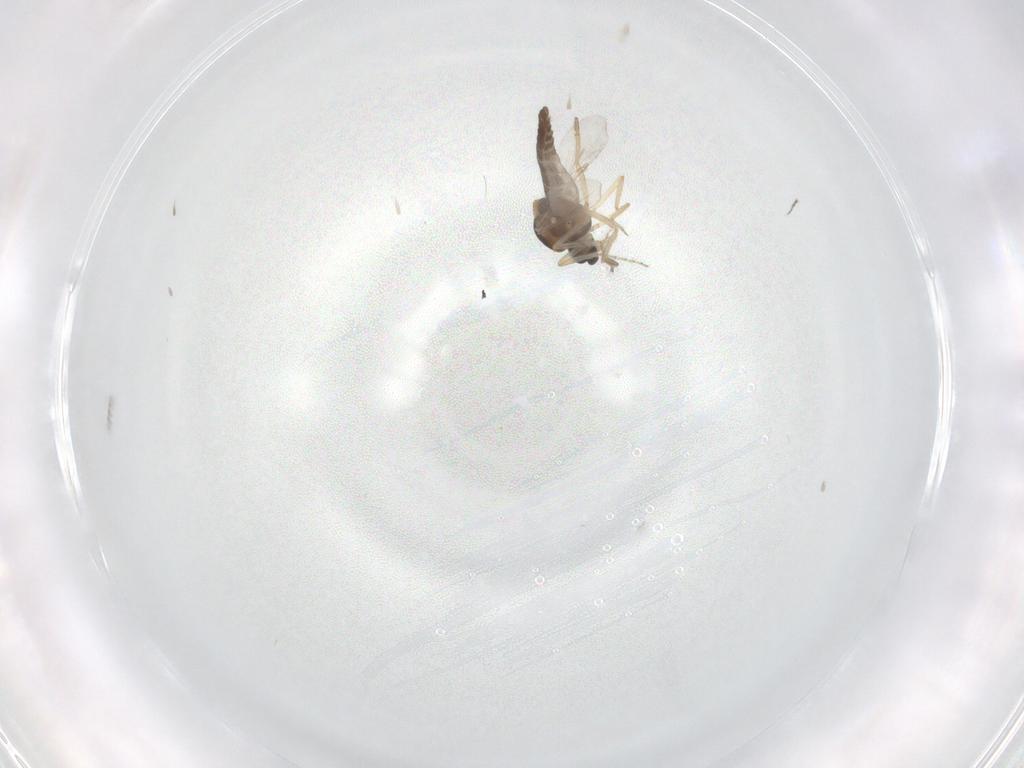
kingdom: Animalia
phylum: Arthropoda
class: Insecta
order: Diptera
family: Ceratopogonidae
